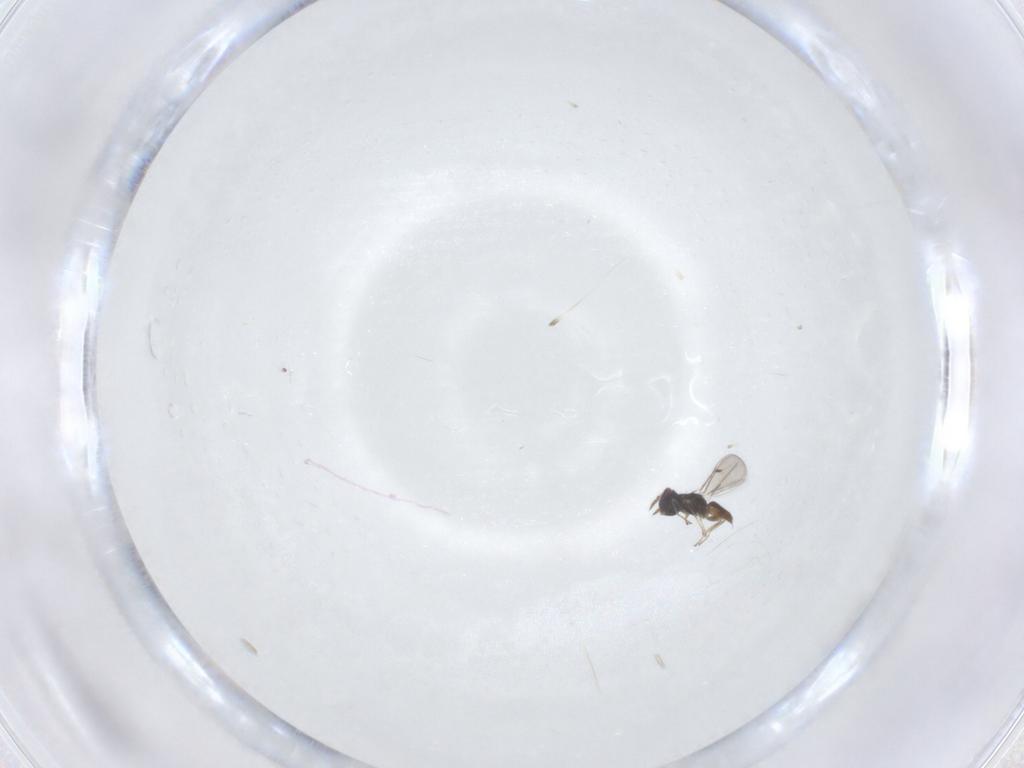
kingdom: Animalia
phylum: Arthropoda
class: Insecta
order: Hymenoptera
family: Eulophidae
